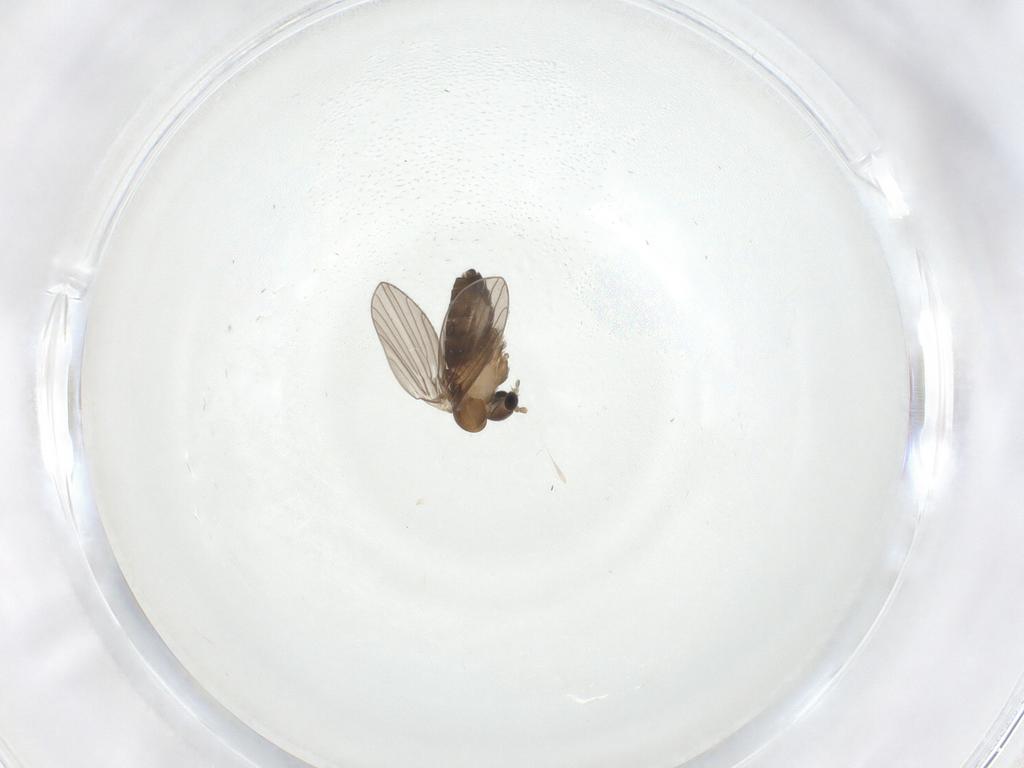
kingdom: Animalia
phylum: Arthropoda
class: Insecta
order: Diptera
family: Psychodidae
